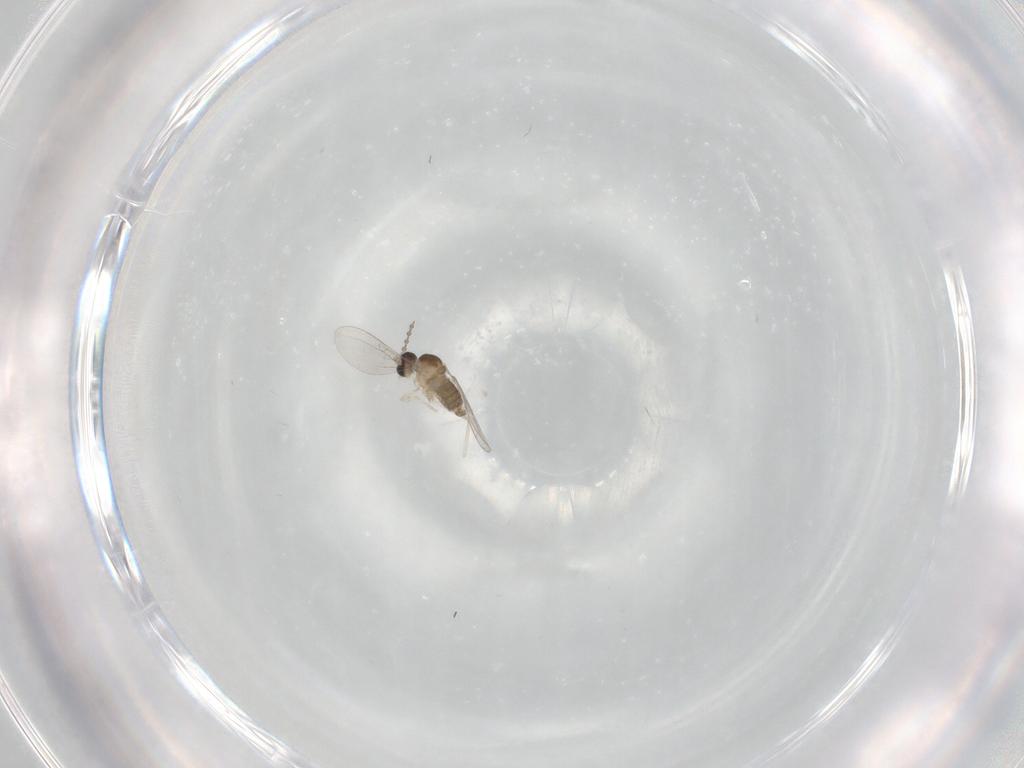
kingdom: Animalia
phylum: Arthropoda
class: Insecta
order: Diptera
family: Cecidomyiidae
